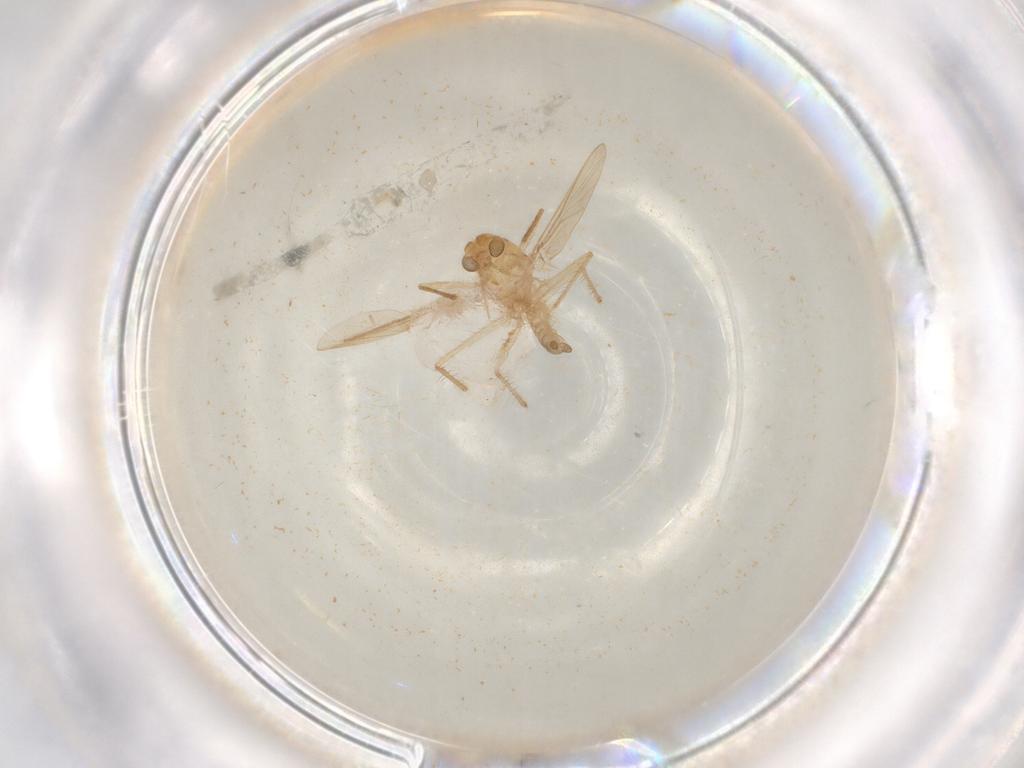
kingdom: Animalia
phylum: Arthropoda
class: Insecta
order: Diptera
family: Chironomidae
